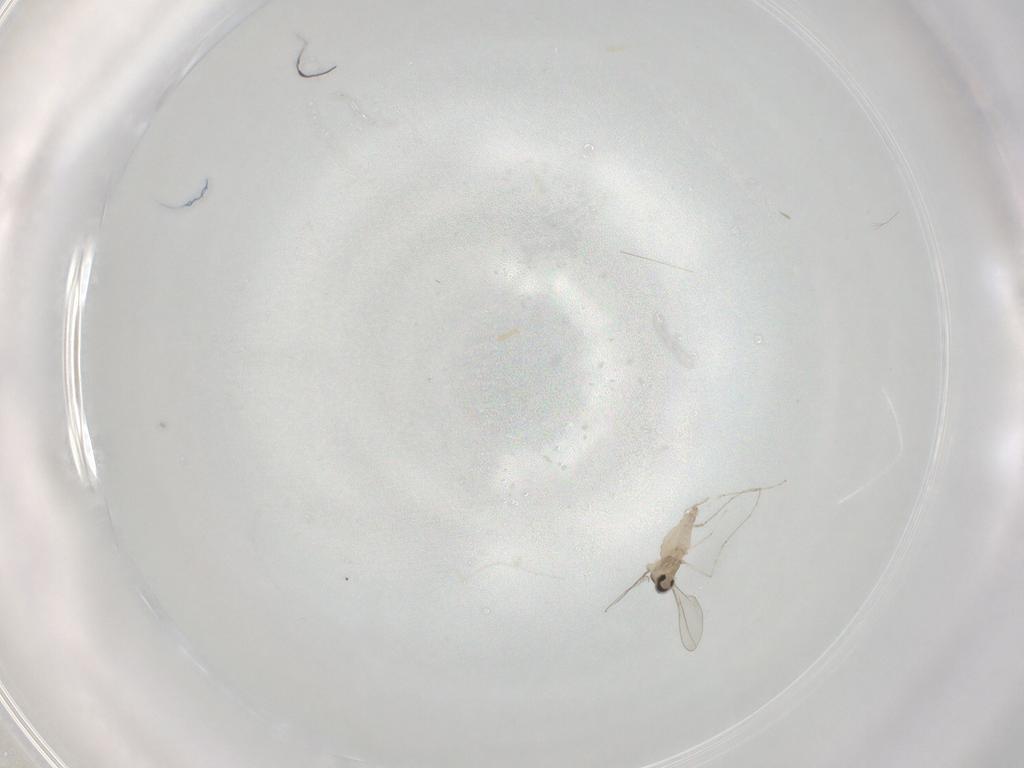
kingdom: Animalia
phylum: Arthropoda
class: Insecta
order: Diptera
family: Cecidomyiidae
